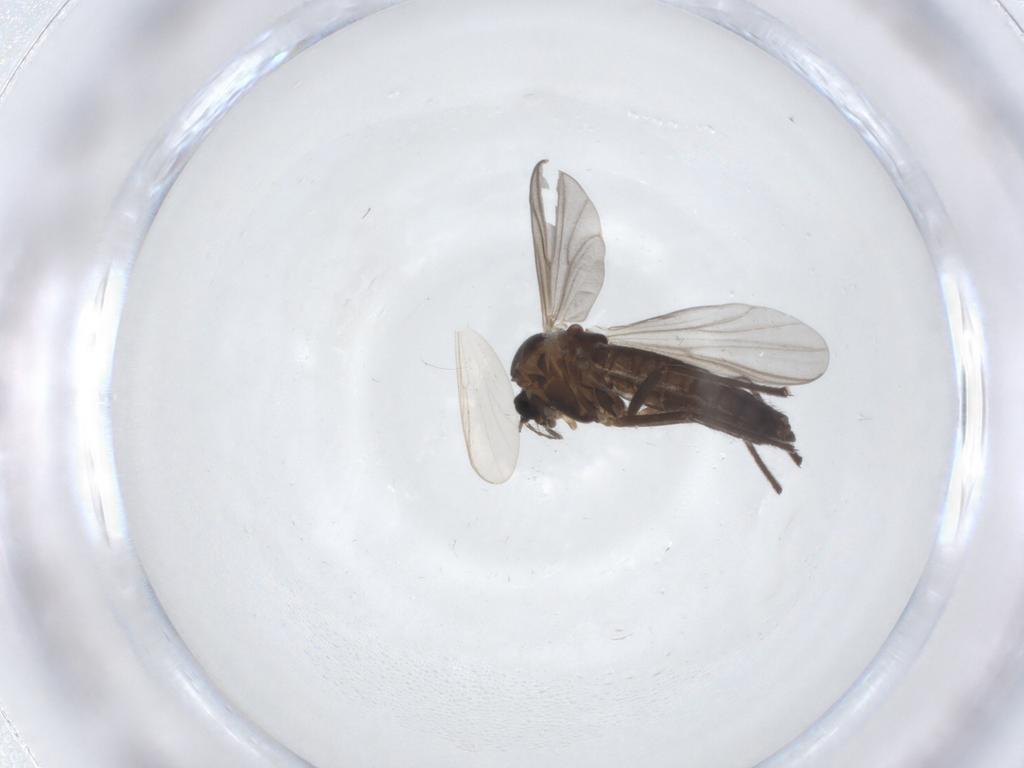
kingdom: Animalia
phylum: Arthropoda
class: Insecta
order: Diptera
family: Chironomidae
